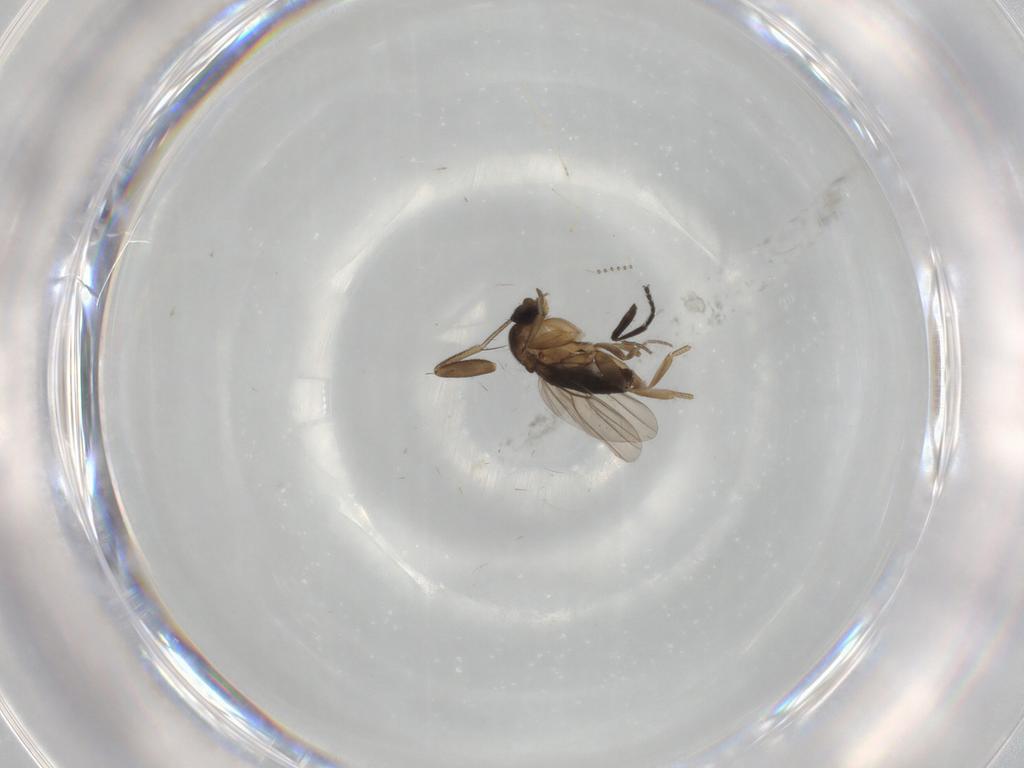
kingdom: Animalia
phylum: Arthropoda
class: Insecta
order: Diptera
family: Phoridae
